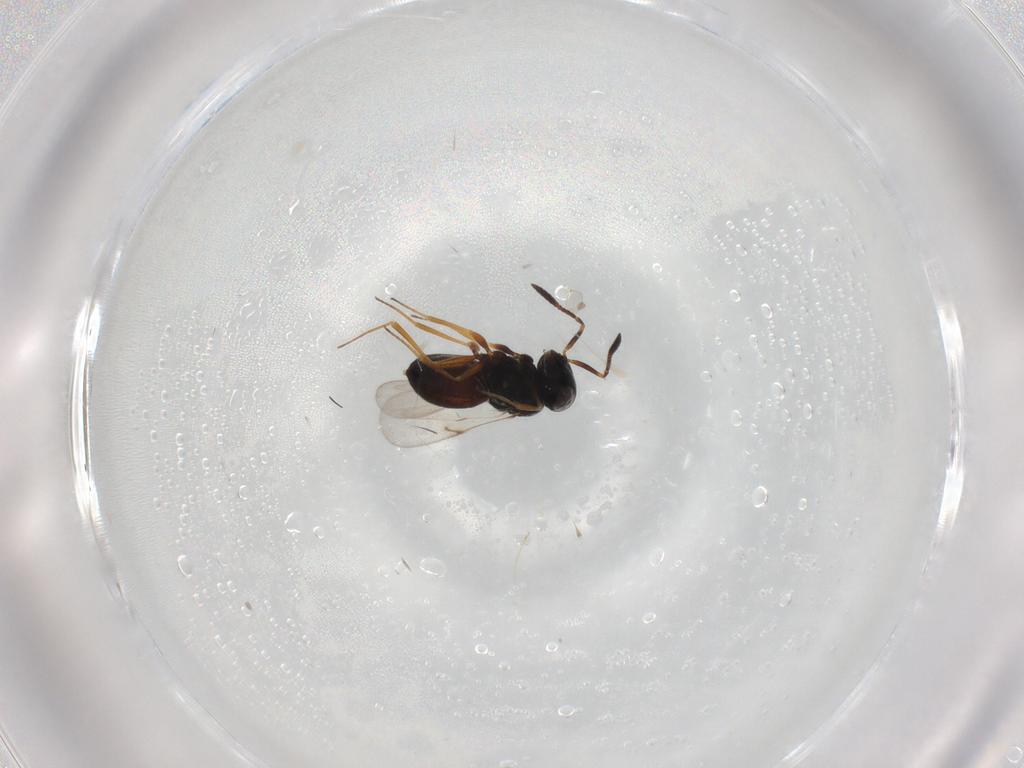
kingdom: Animalia
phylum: Arthropoda
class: Insecta
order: Hymenoptera
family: Scelionidae
